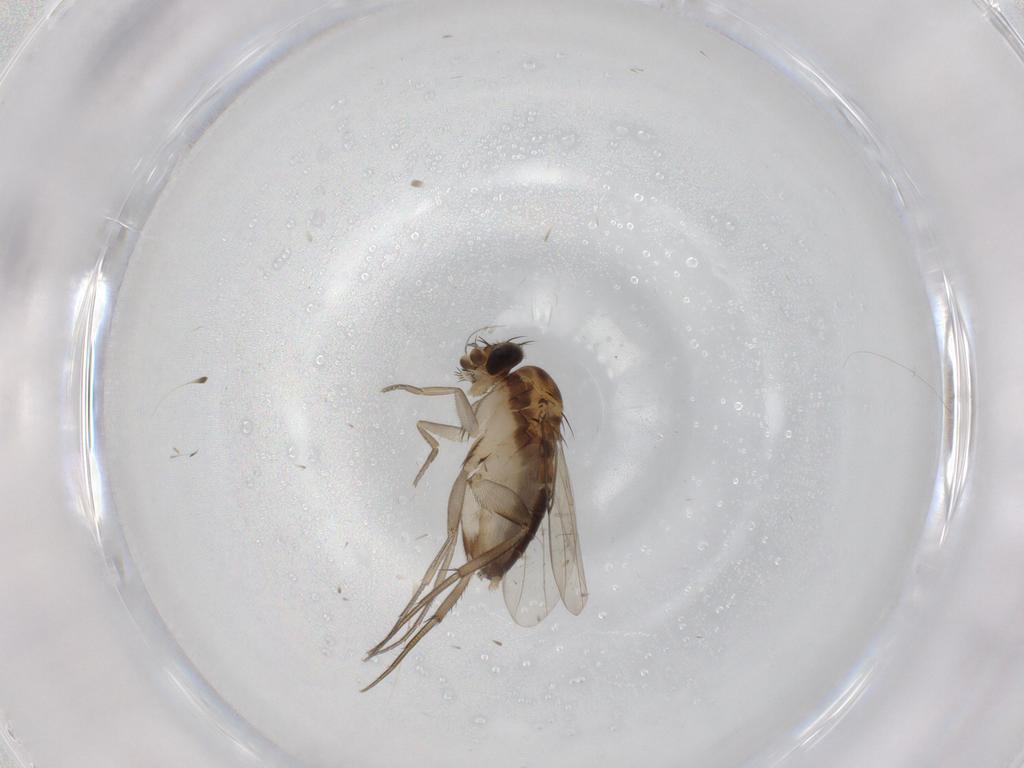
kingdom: Animalia
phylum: Arthropoda
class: Insecta
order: Diptera
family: Phoridae
